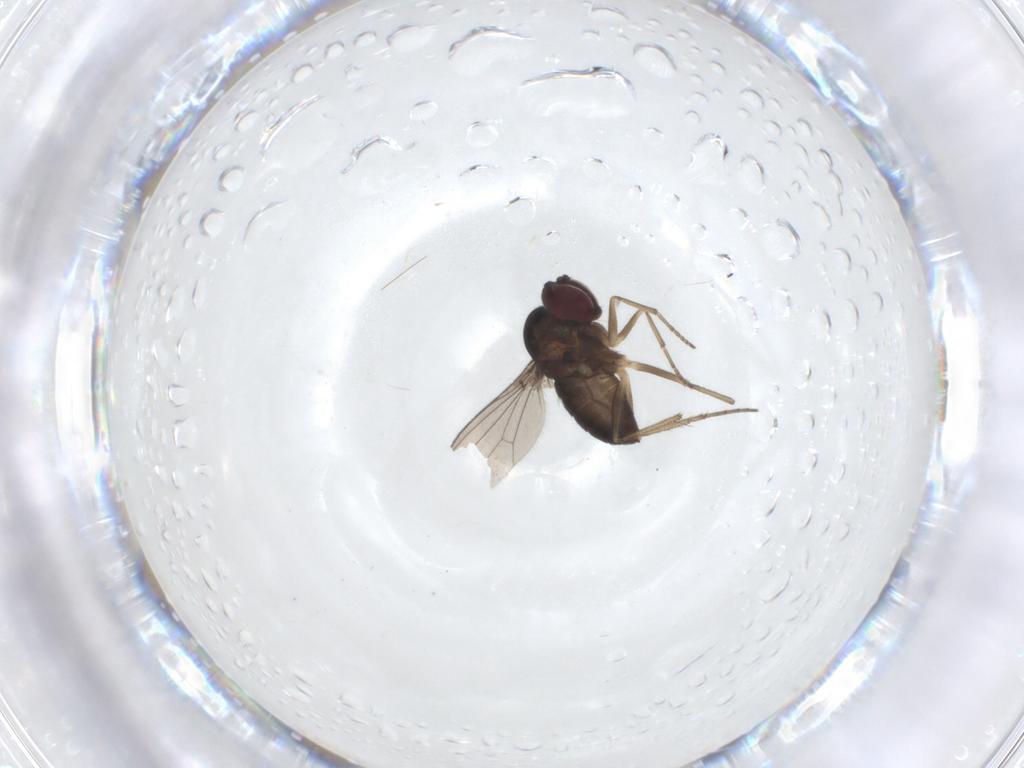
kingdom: Animalia
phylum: Arthropoda
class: Insecta
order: Diptera
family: Dolichopodidae
